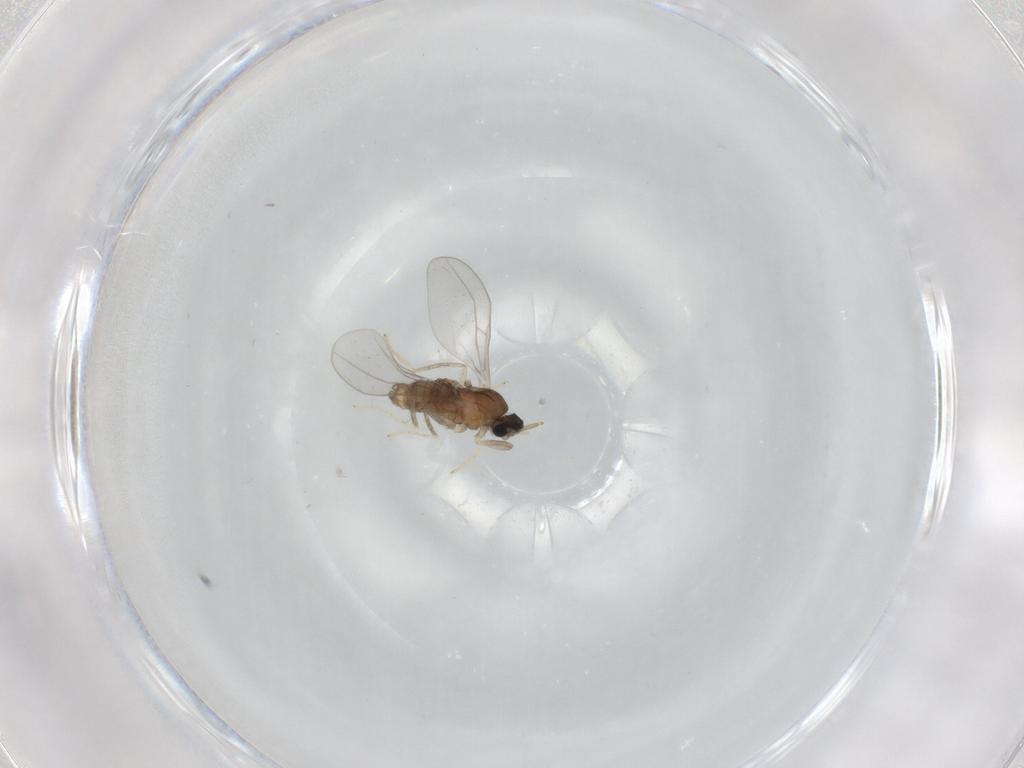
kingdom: Animalia
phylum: Arthropoda
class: Insecta
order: Diptera
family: Cecidomyiidae
